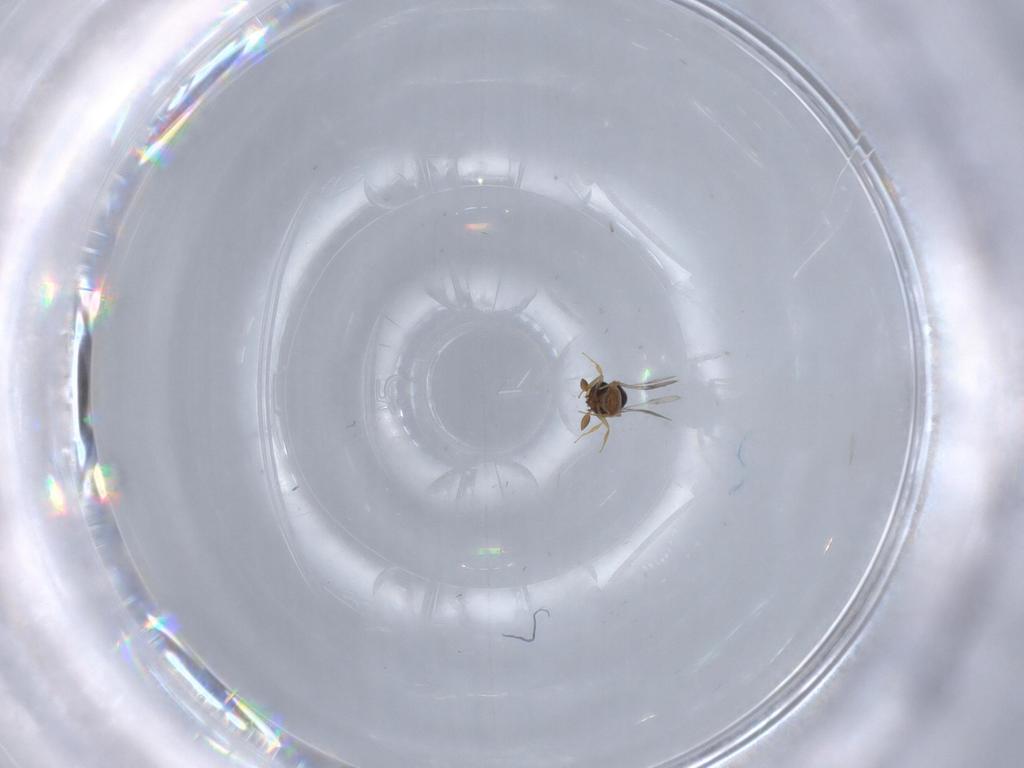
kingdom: Animalia
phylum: Arthropoda
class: Insecta
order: Hymenoptera
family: Scelionidae
